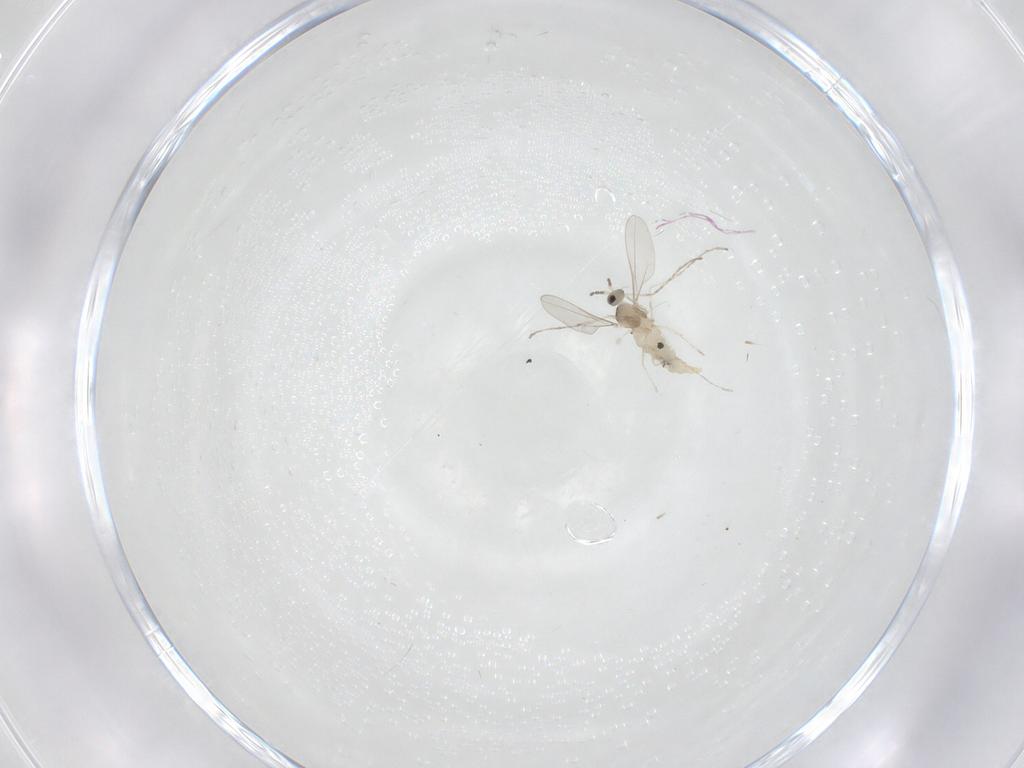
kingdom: Animalia
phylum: Arthropoda
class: Insecta
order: Diptera
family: Cecidomyiidae
